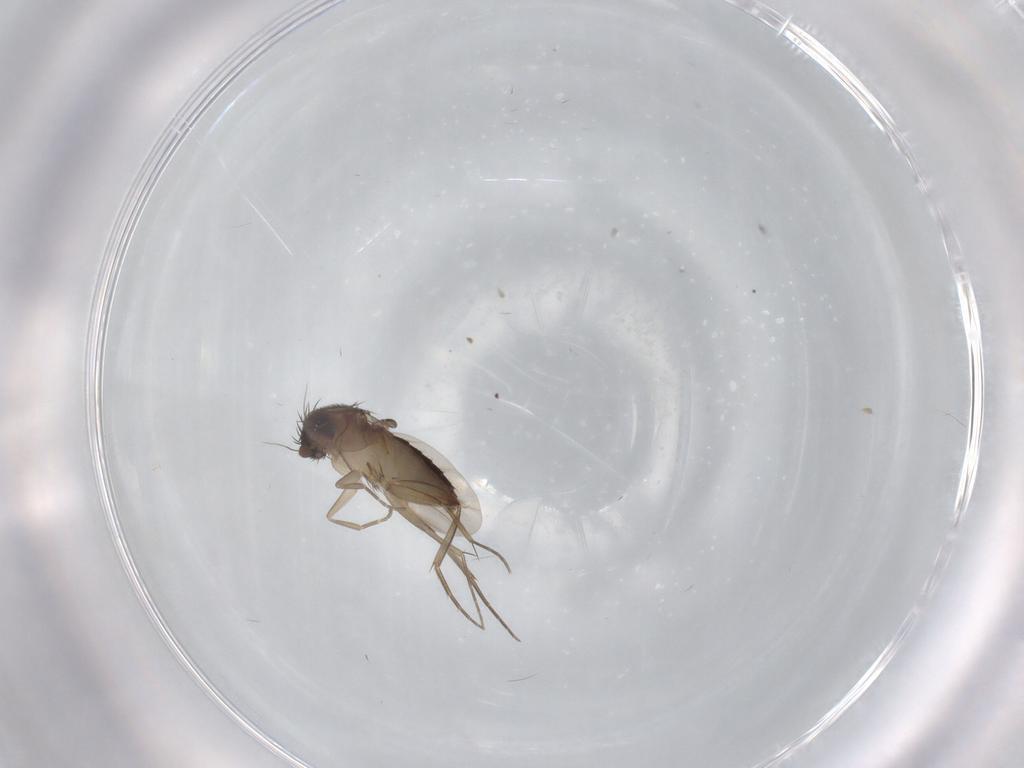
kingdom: Animalia
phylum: Arthropoda
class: Insecta
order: Diptera
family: Phoridae
